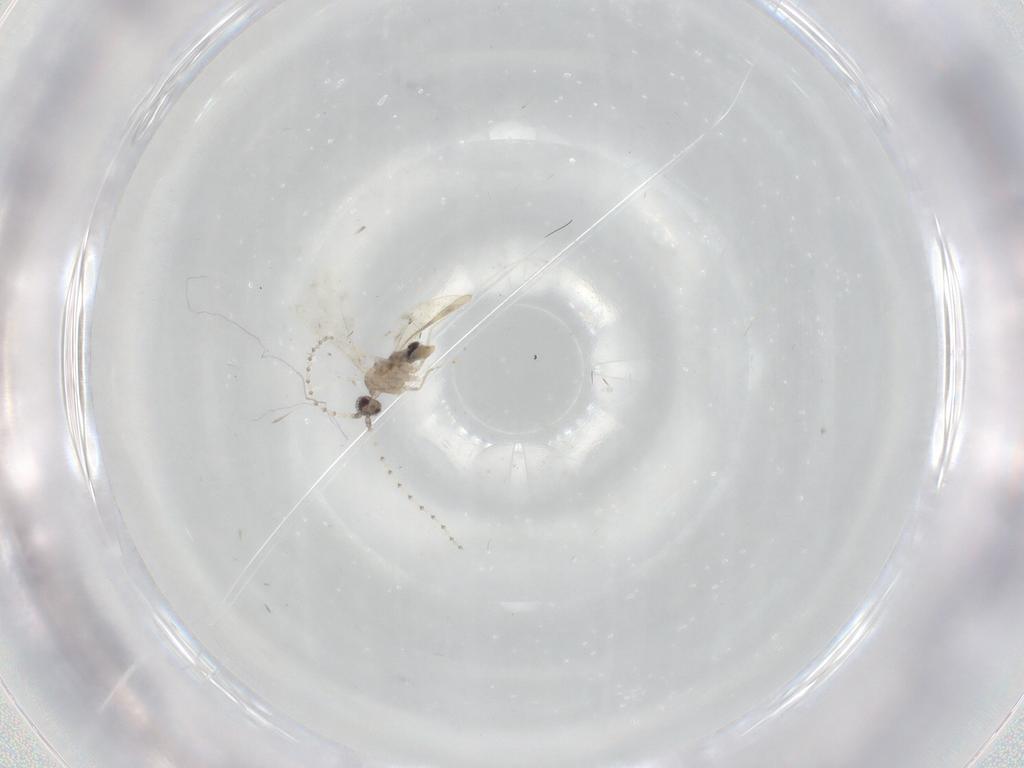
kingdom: Animalia
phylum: Arthropoda
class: Insecta
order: Diptera
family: Cecidomyiidae
